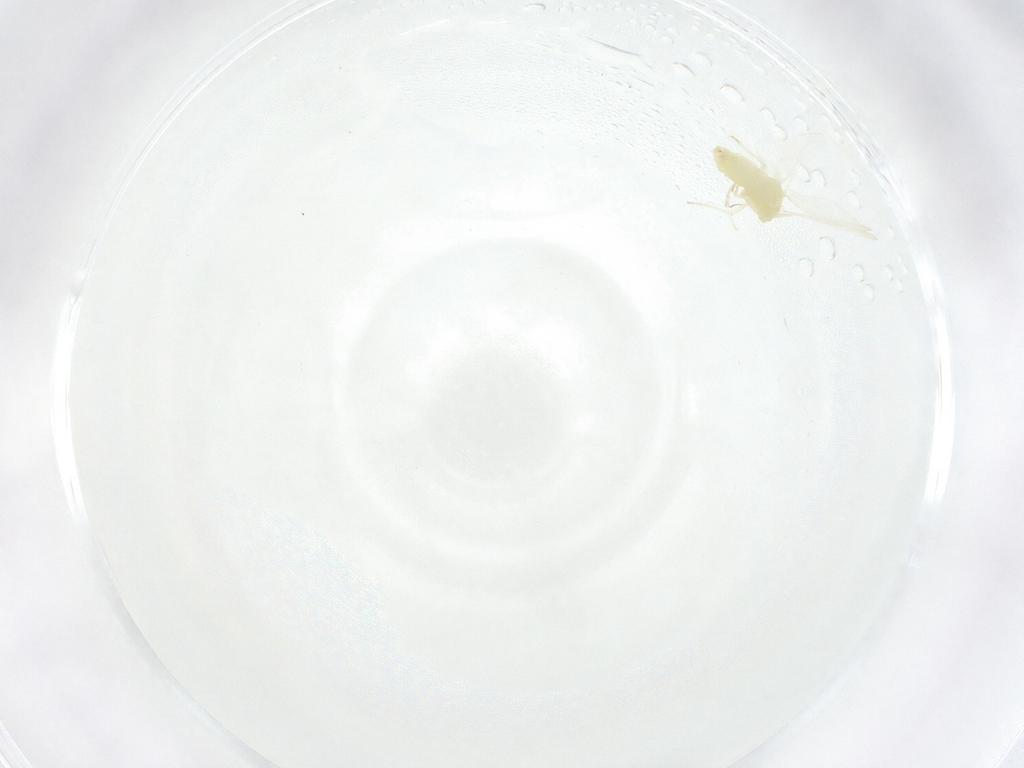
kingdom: Animalia
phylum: Arthropoda
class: Insecta
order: Hemiptera
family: Aleyrodidae
